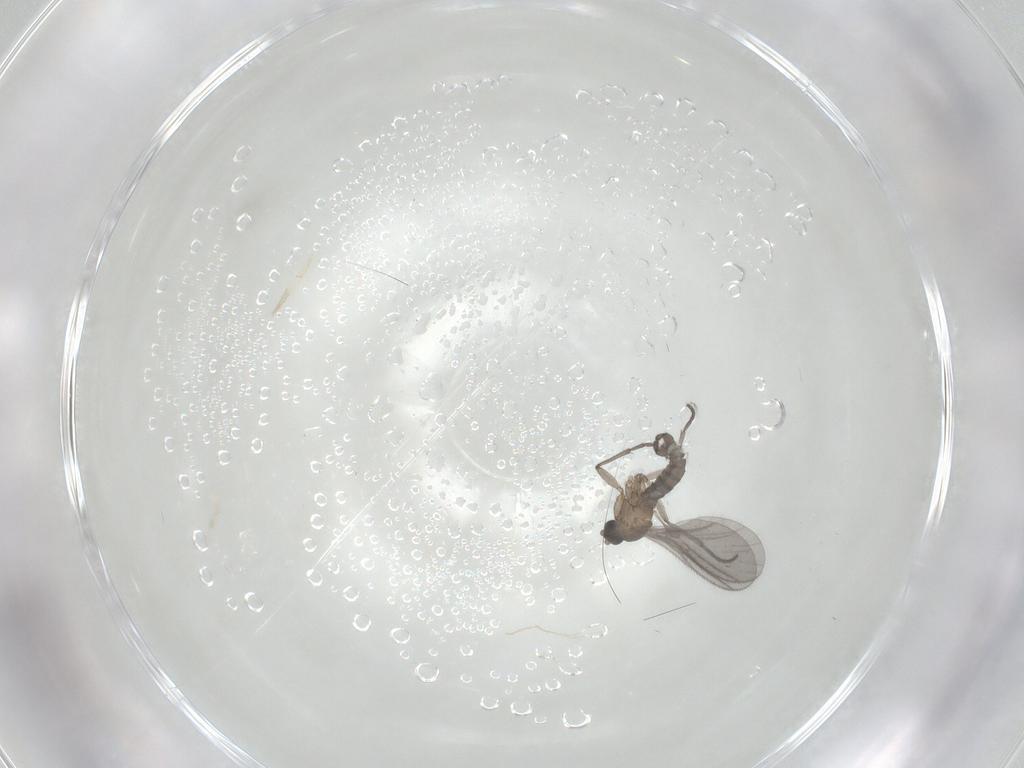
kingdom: Animalia
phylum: Arthropoda
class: Insecta
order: Diptera
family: Sciaridae
